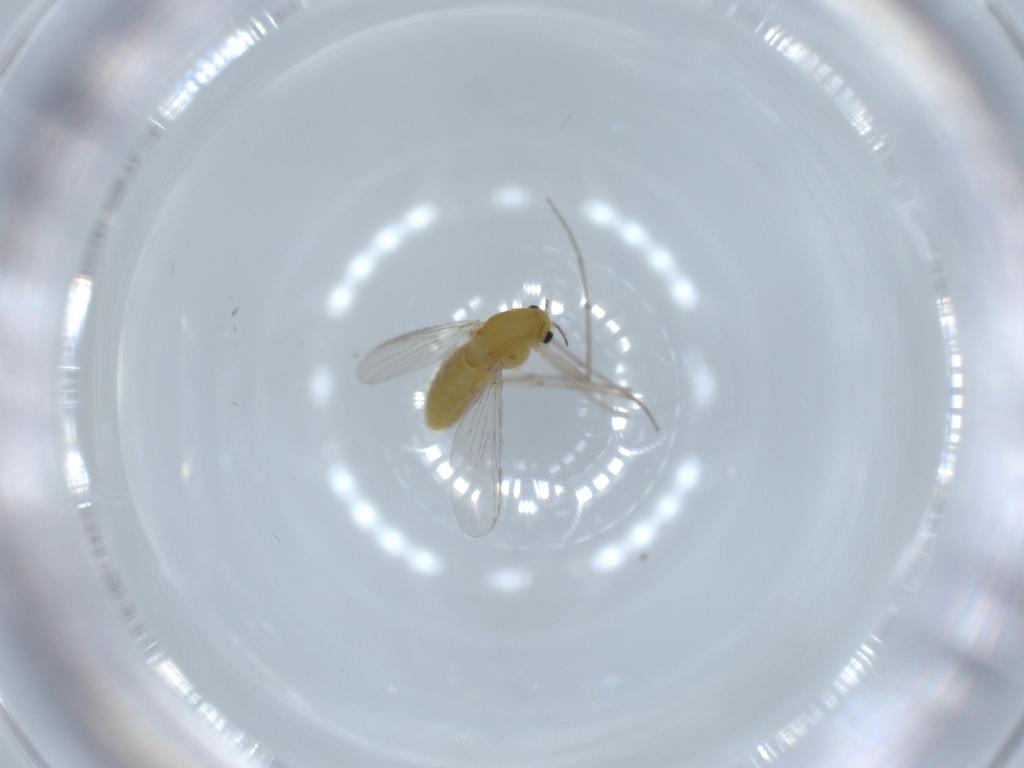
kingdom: Animalia
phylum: Arthropoda
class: Insecta
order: Diptera
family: Chironomidae
